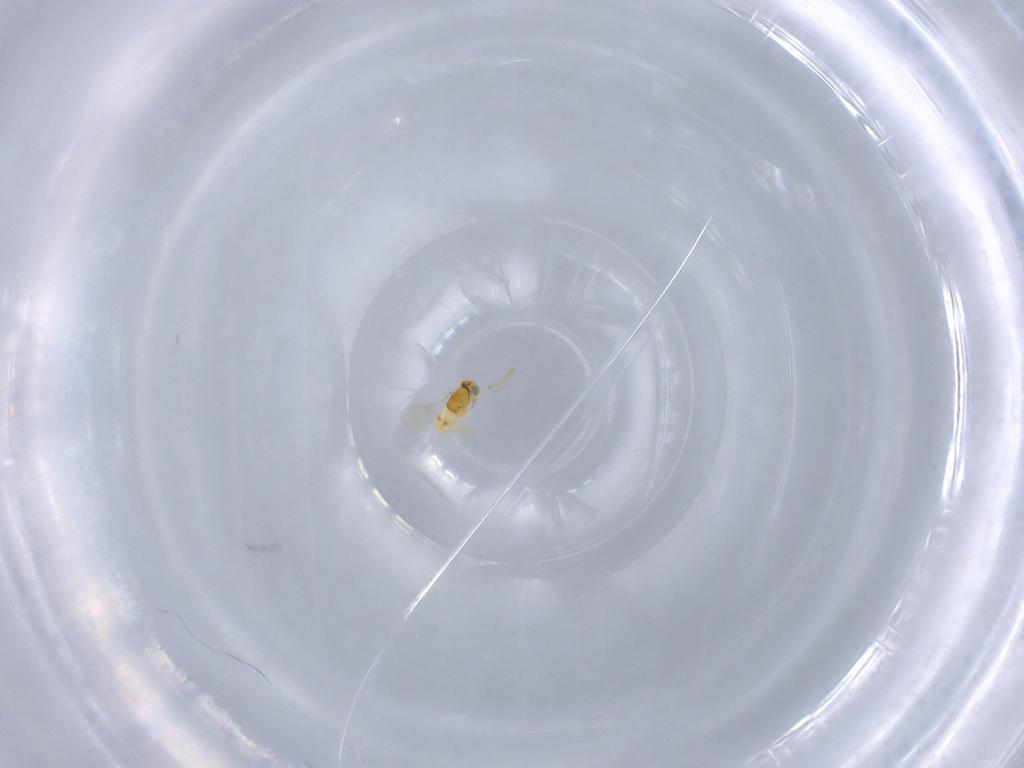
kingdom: Animalia
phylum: Arthropoda
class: Insecta
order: Hymenoptera
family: Aphelinidae
